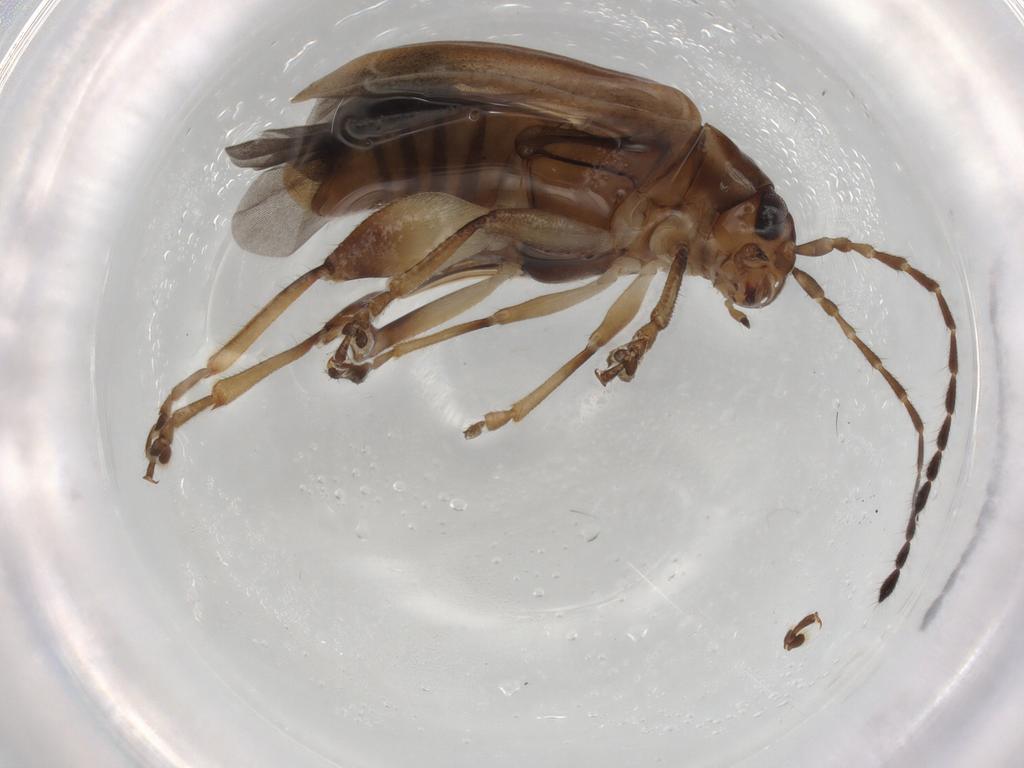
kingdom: Animalia
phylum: Arthropoda
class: Insecta
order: Coleoptera
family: Chrysomelidae
